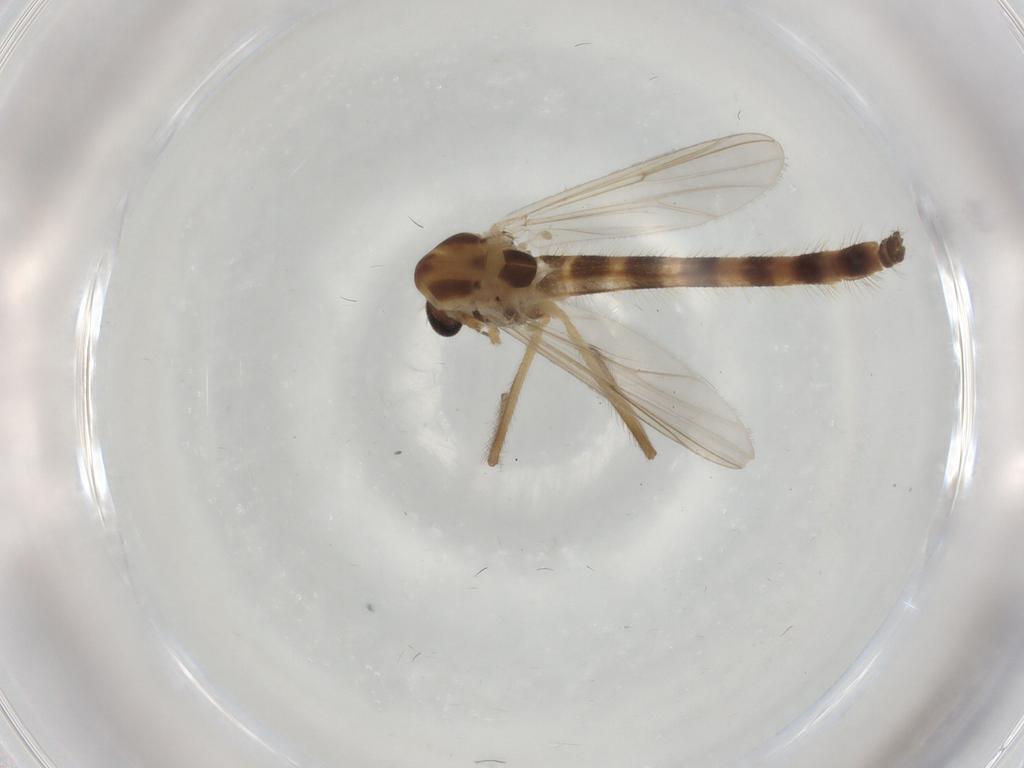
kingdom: Animalia
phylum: Arthropoda
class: Insecta
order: Diptera
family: Chironomidae
